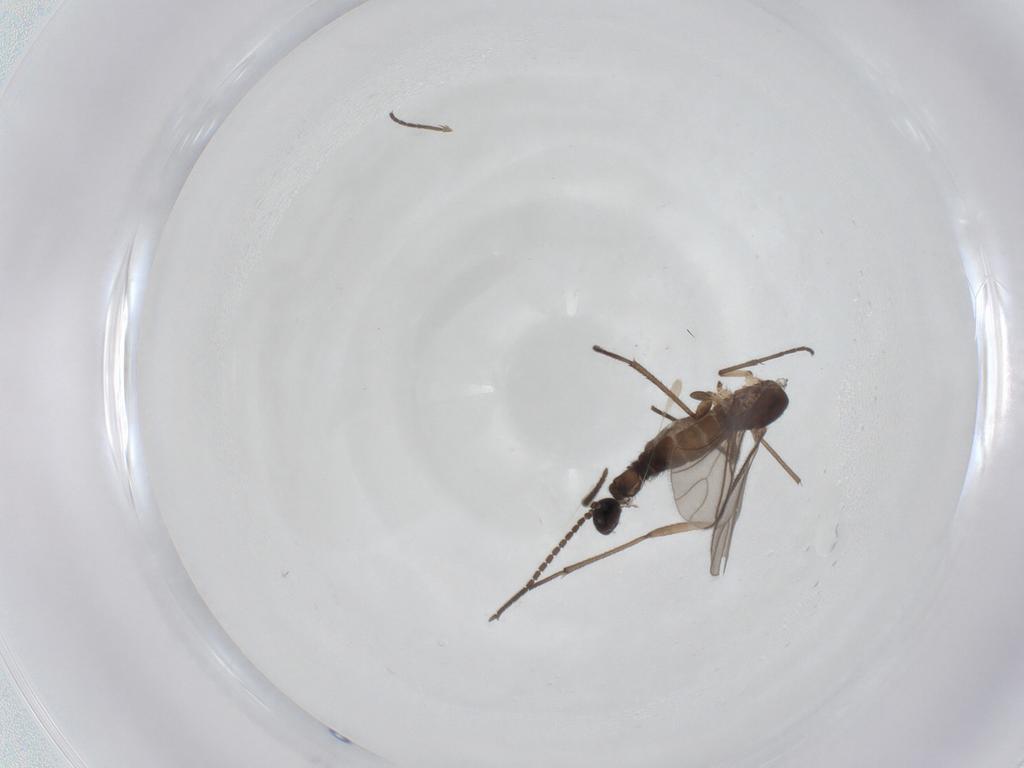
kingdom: Animalia
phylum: Arthropoda
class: Insecta
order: Diptera
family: Sciaridae
